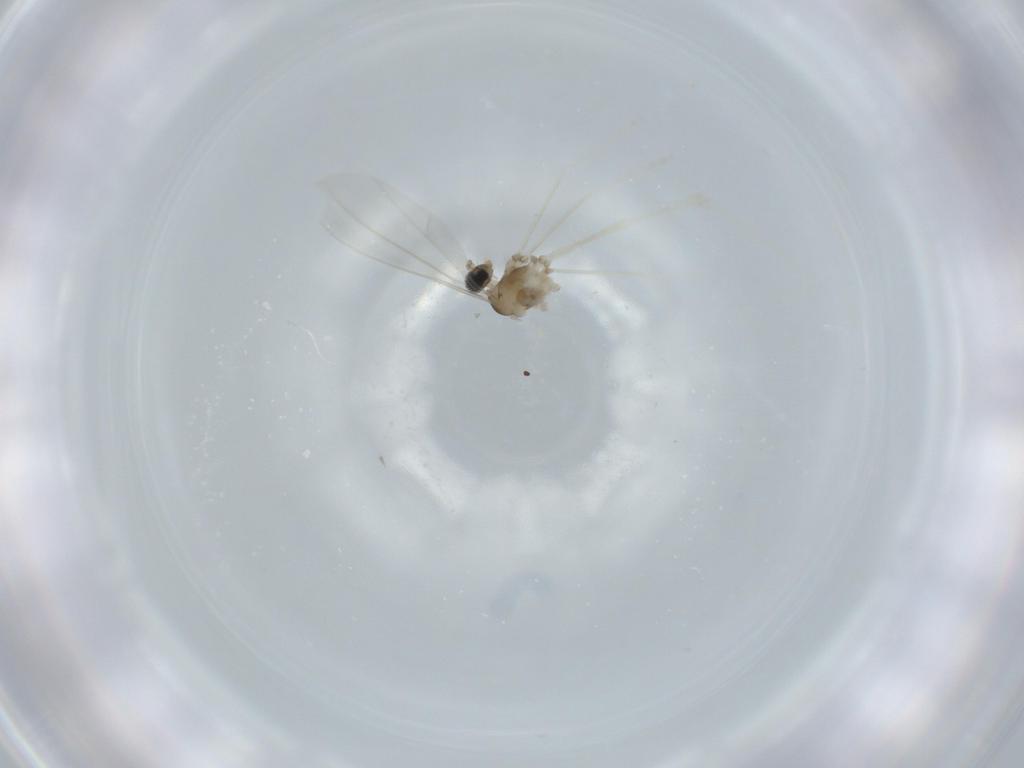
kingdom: Animalia
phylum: Arthropoda
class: Insecta
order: Diptera
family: Cecidomyiidae
